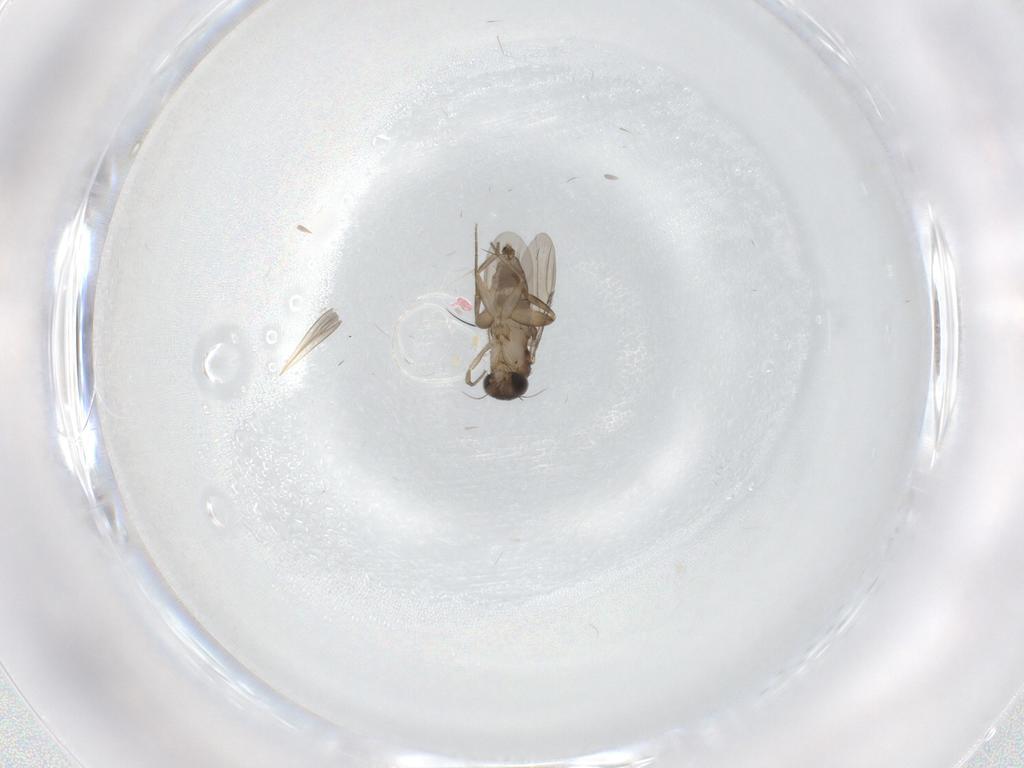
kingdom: Animalia
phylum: Arthropoda
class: Insecta
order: Diptera
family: Phoridae
